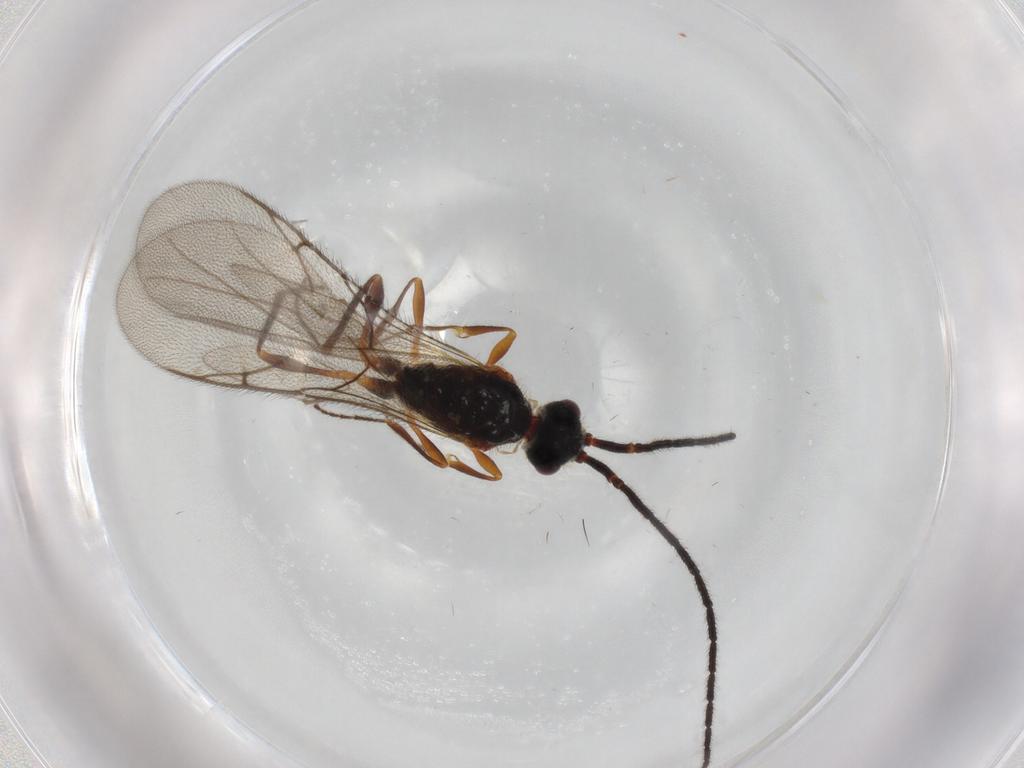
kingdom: Animalia
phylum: Arthropoda
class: Insecta
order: Hymenoptera
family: Diapriidae
